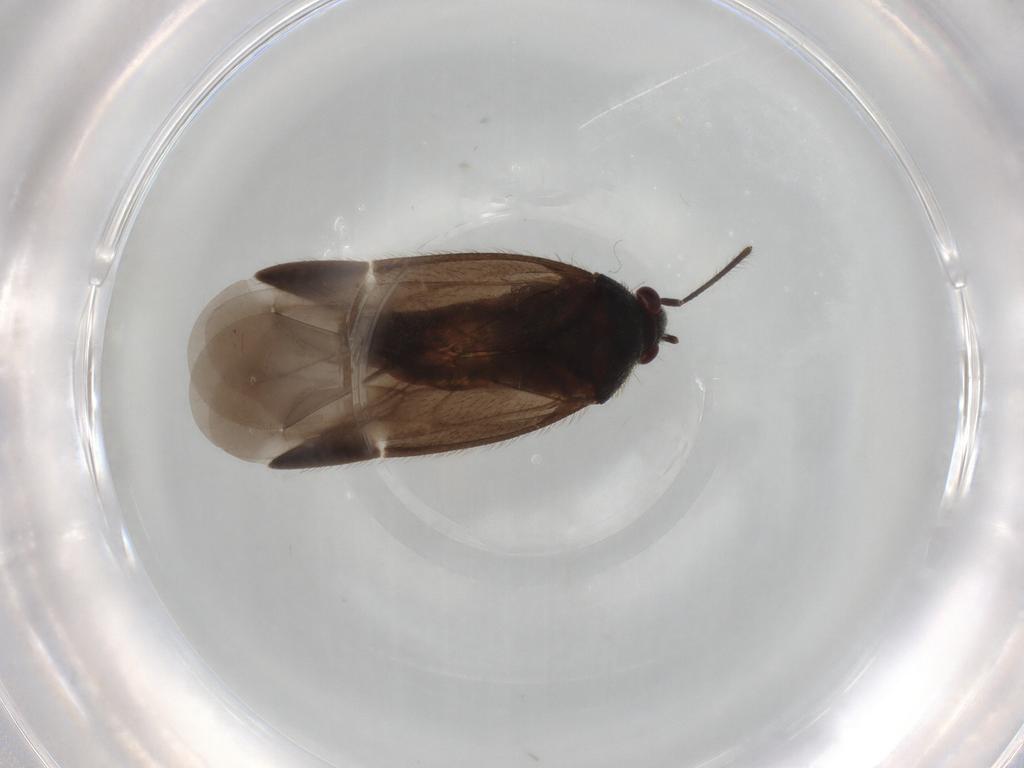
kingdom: Animalia
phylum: Arthropoda
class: Insecta
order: Hemiptera
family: Miridae
